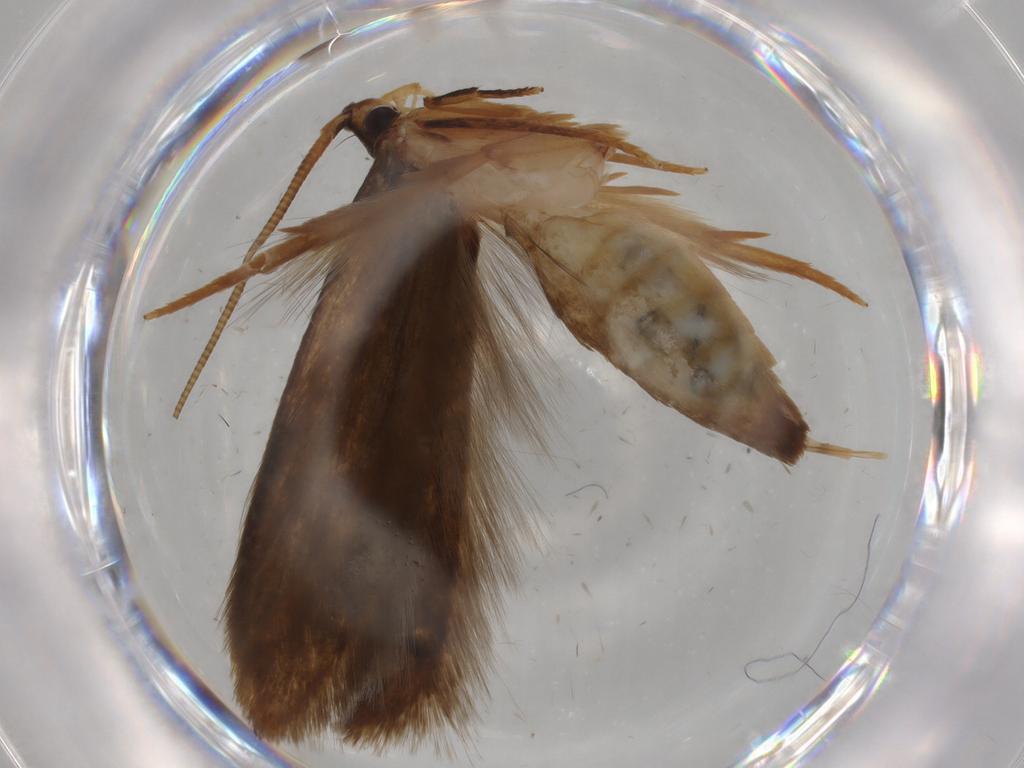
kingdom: Animalia
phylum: Arthropoda
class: Insecta
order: Lepidoptera
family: Tineidae
